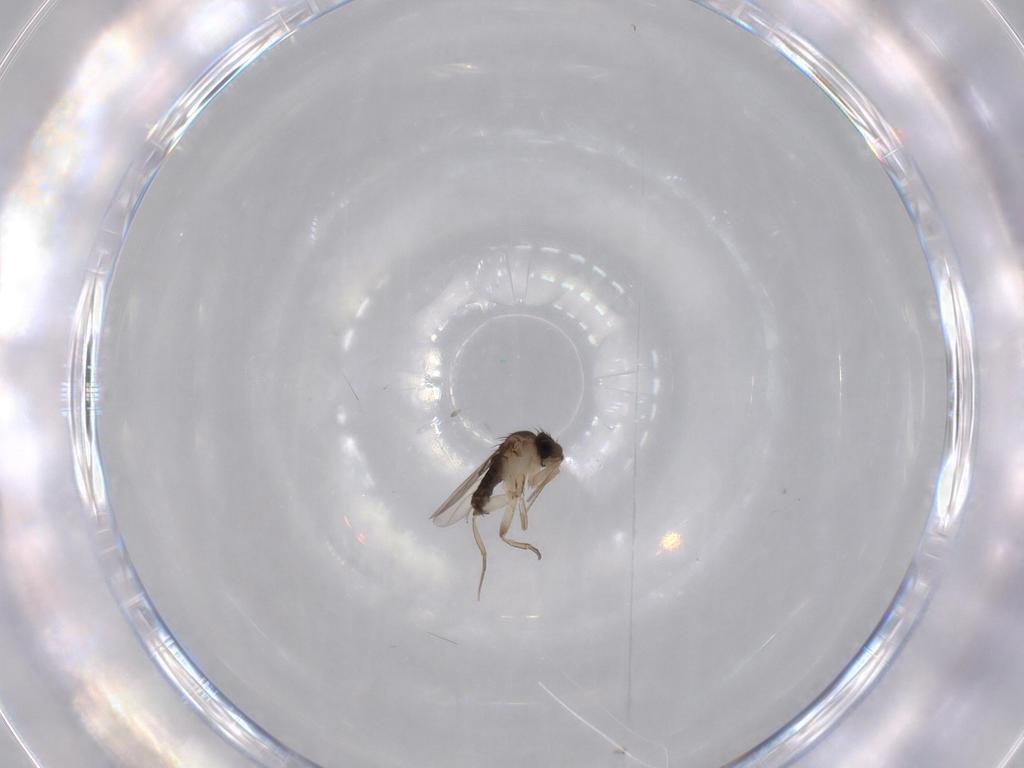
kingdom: Animalia
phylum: Arthropoda
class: Insecta
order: Diptera
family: Phoridae
